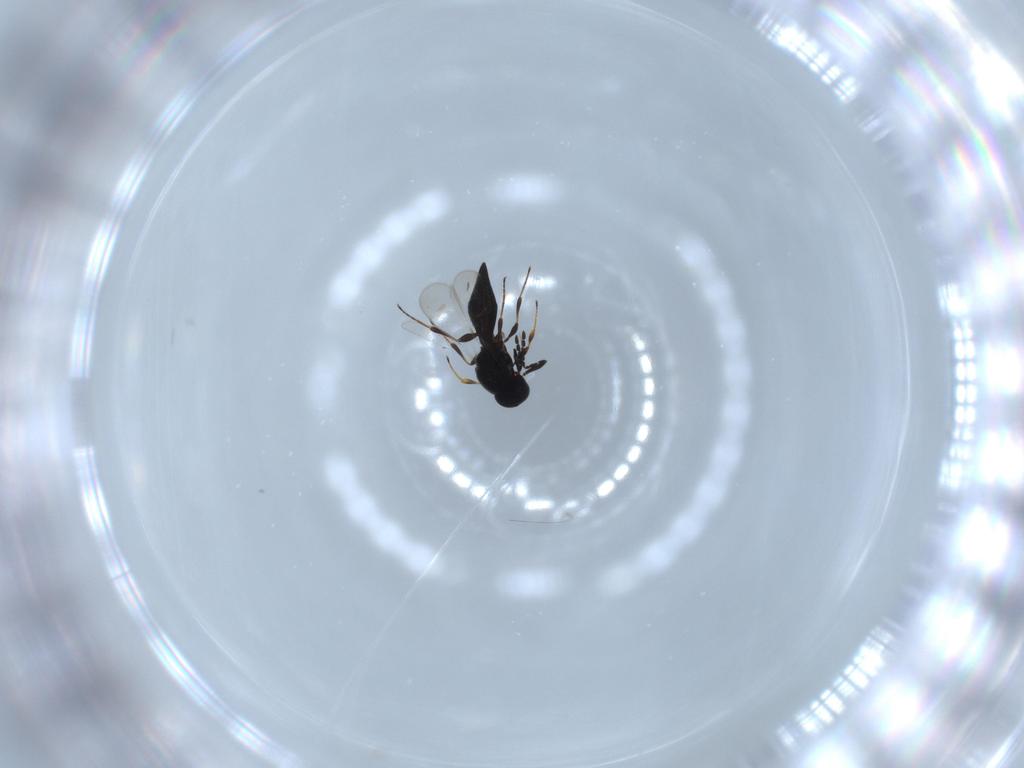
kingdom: Animalia
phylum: Arthropoda
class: Insecta
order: Diptera
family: Mythicomyiidae
